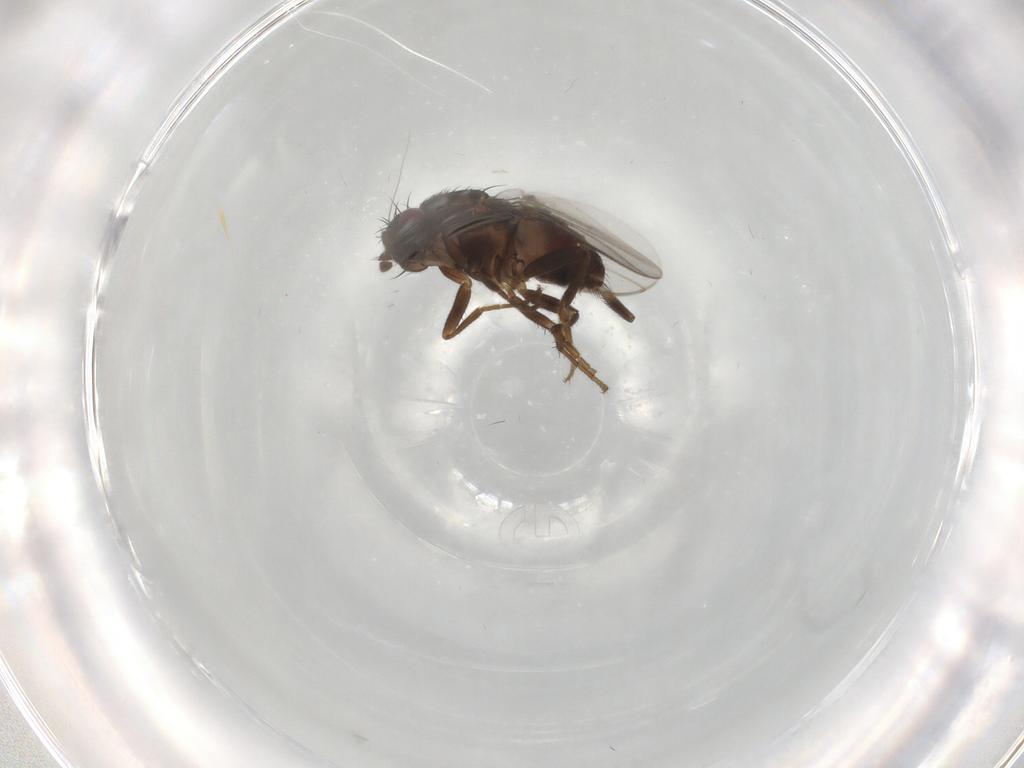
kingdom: Animalia
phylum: Arthropoda
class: Insecta
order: Diptera
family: Sphaeroceridae
